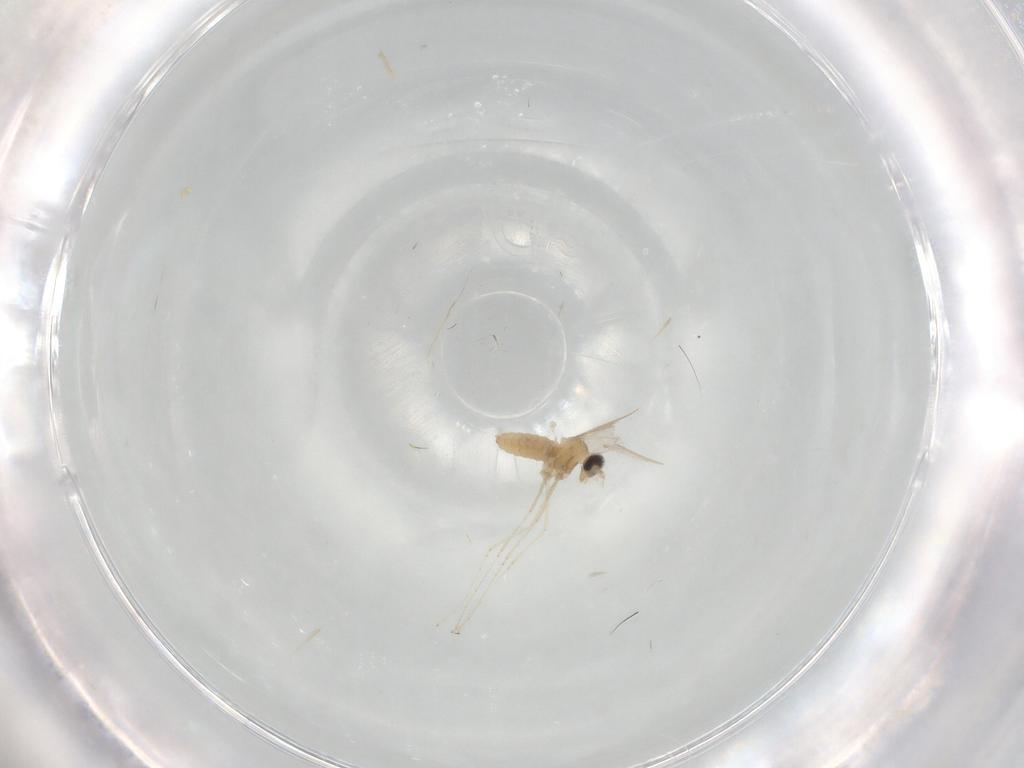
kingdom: Animalia
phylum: Arthropoda
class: Insecta
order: Diptera
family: Cecidomyiidae
